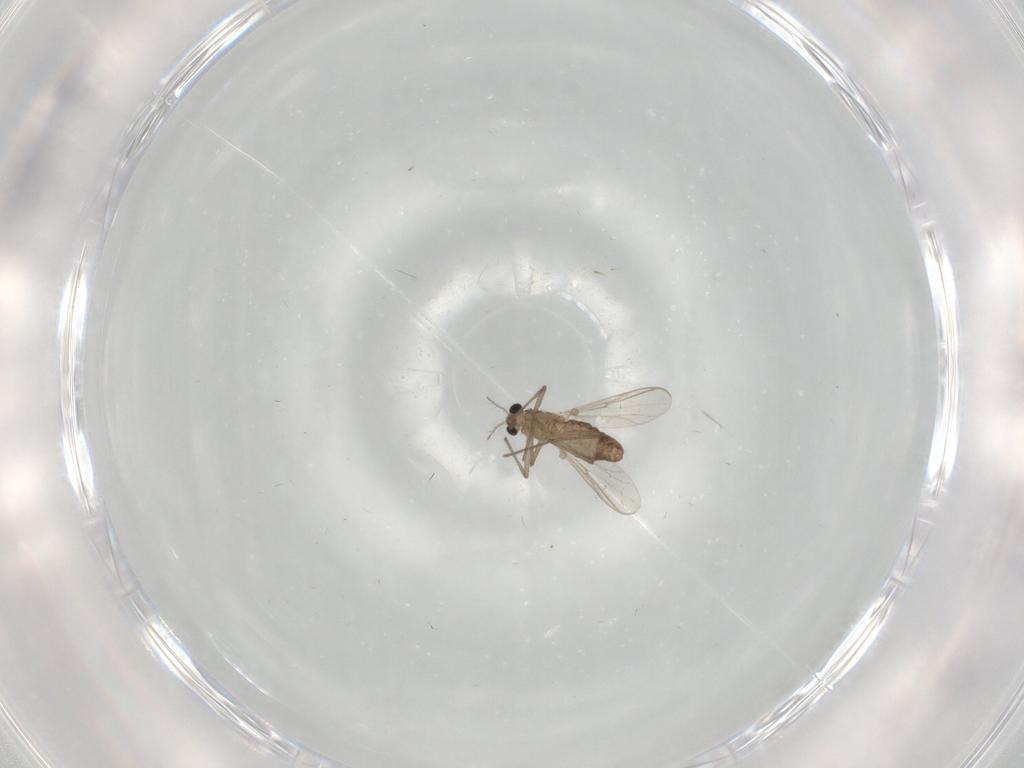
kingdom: Animalia
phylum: Arthropoda
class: Insecta
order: Diptera
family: Chironomidae
